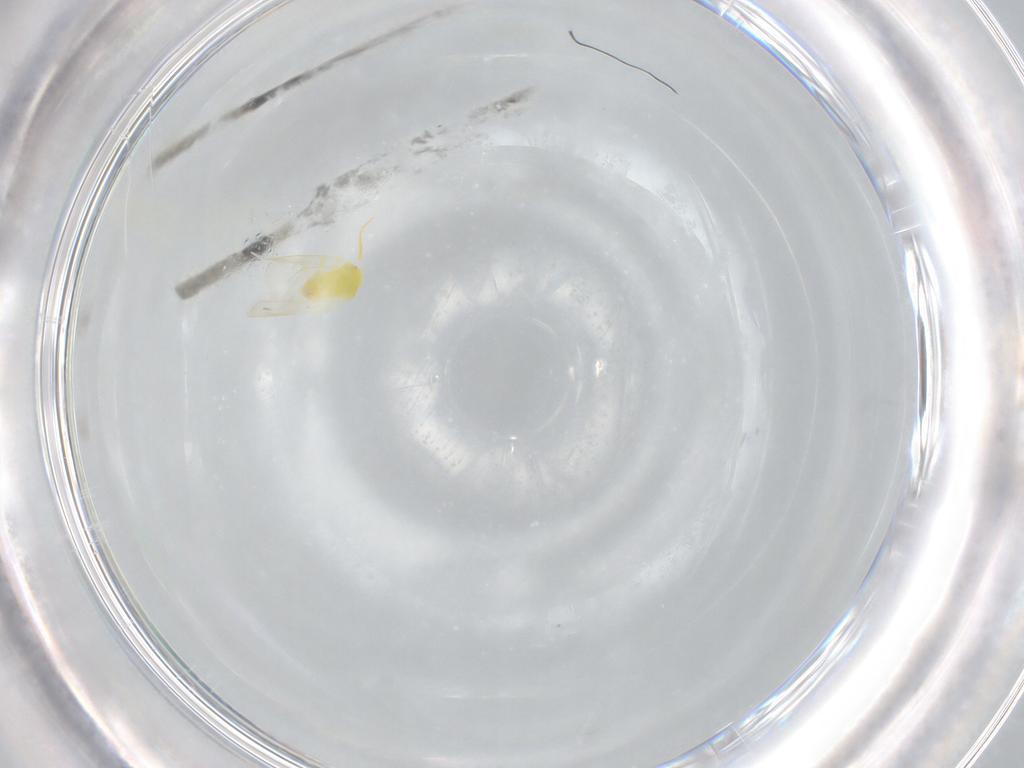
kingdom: Animalia
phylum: Arthropoda
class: Insecta
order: Hemiptera
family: Aleyrodidae
